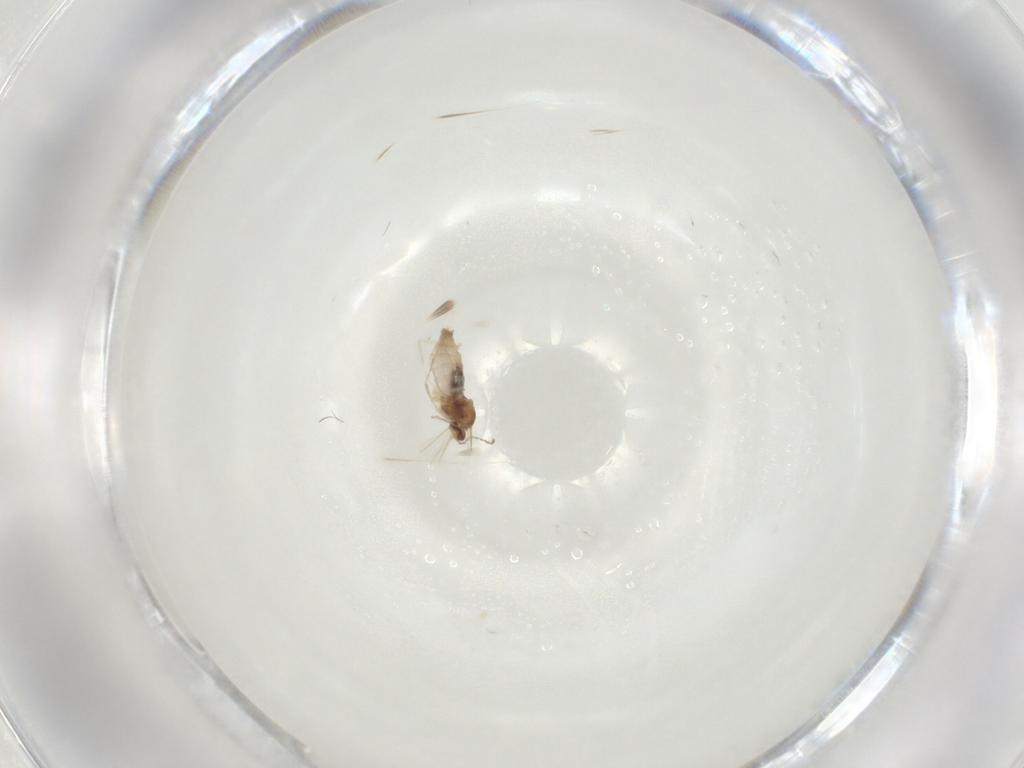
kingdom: Animalia
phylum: Arthropoda
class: Insecta
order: Diptera
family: Cecidomyiidae
